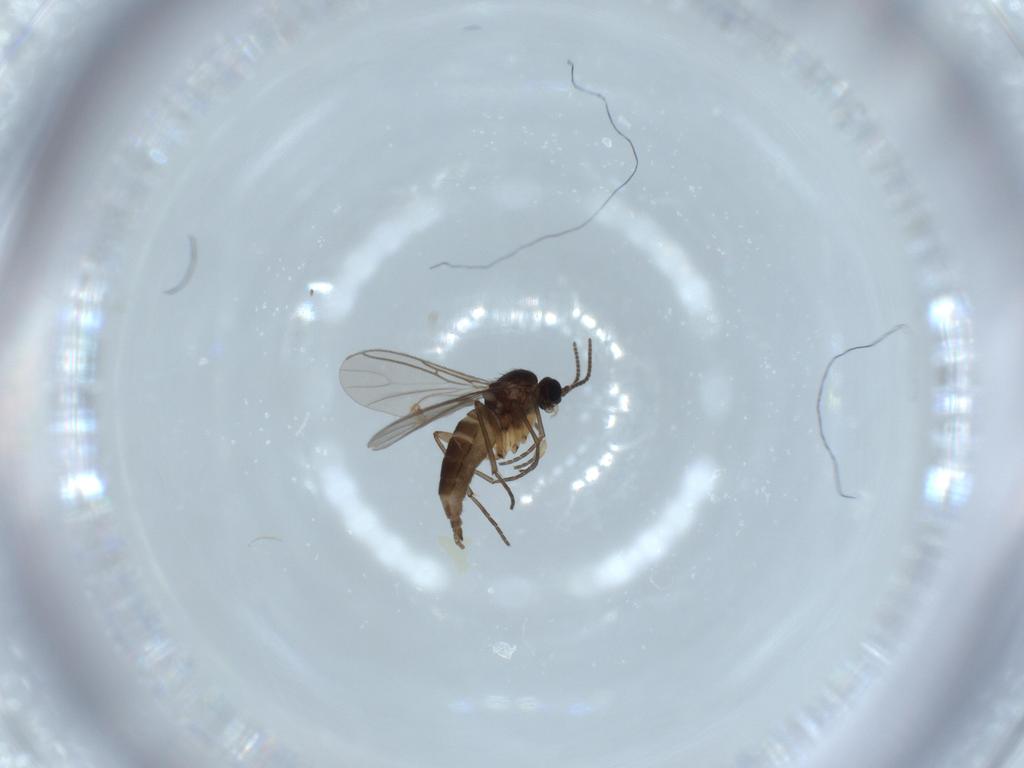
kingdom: Animalia
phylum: Arthropoda
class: Insecta
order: Diptera
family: Sciaridae
